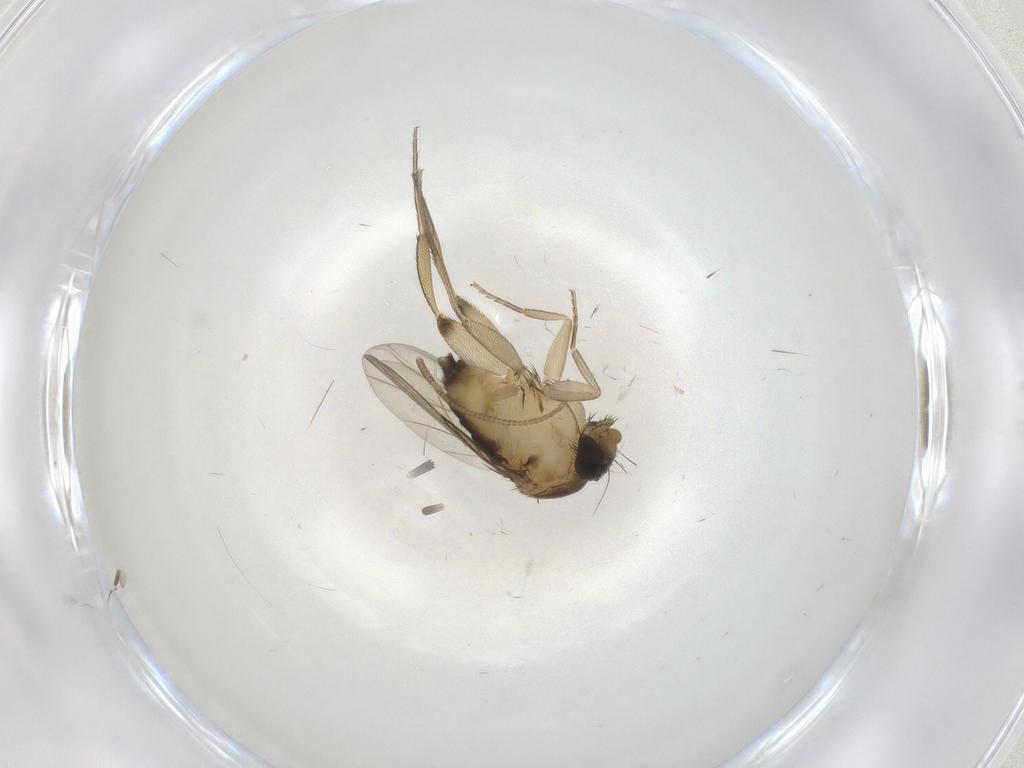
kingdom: Animalia
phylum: Arthropoda
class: Insecta
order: Diptera
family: Phoridae
